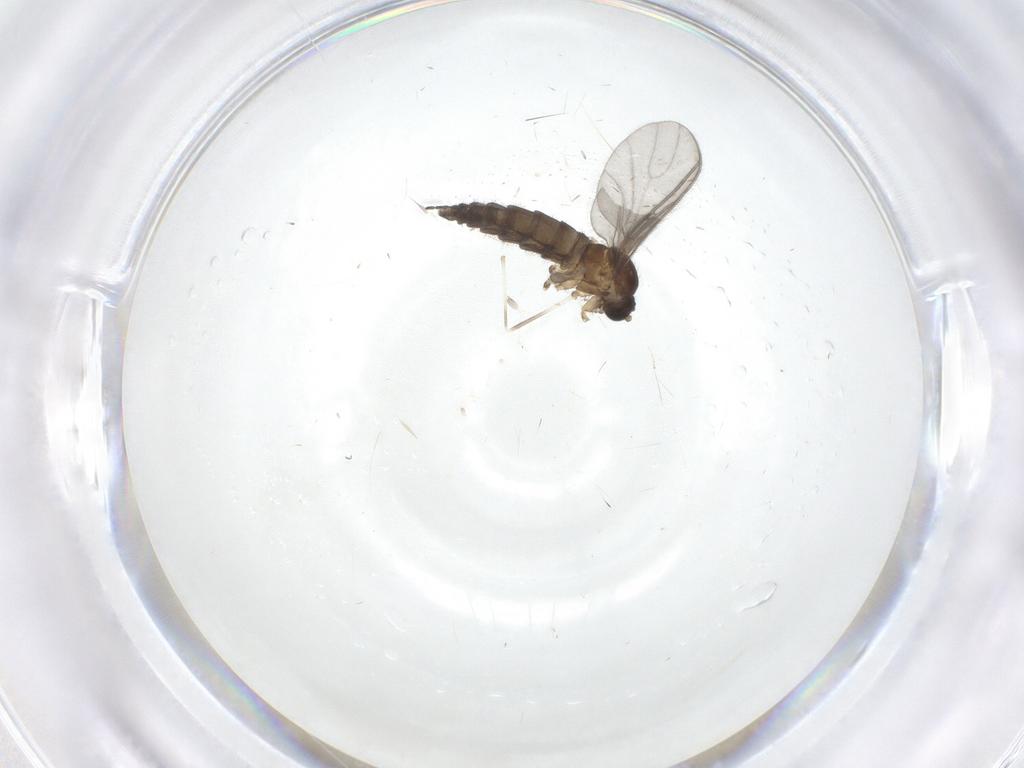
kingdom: Animalia
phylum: Arthropoda
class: Insecta
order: Diptera
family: Sciaridae
